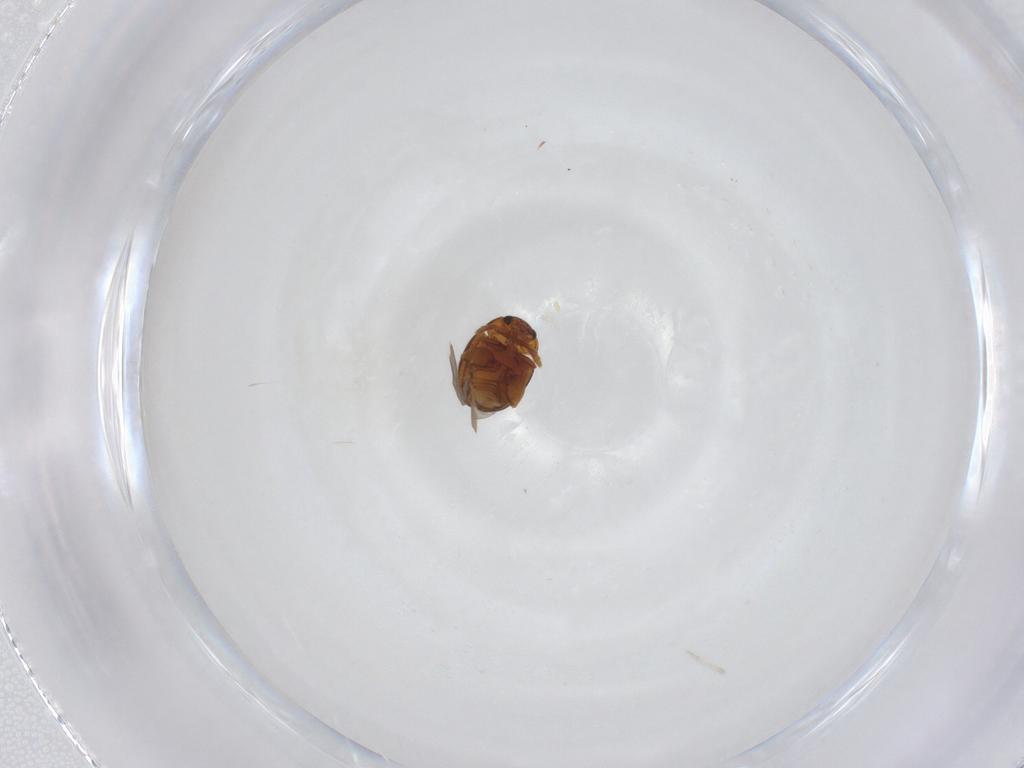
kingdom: Animalia
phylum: Arthropoda
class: Insecta
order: Coleoptera
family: Chrysomelidae
